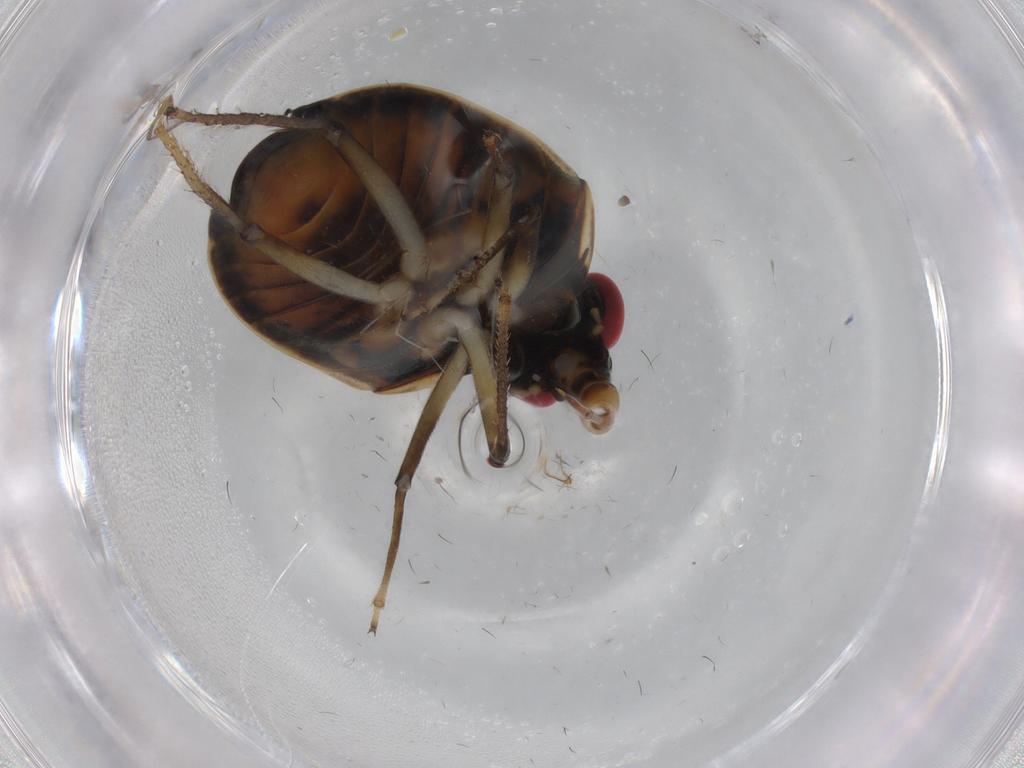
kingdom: Animalia
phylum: Arthropoda
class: Insecta
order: Hemiptera
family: Ochteridae
